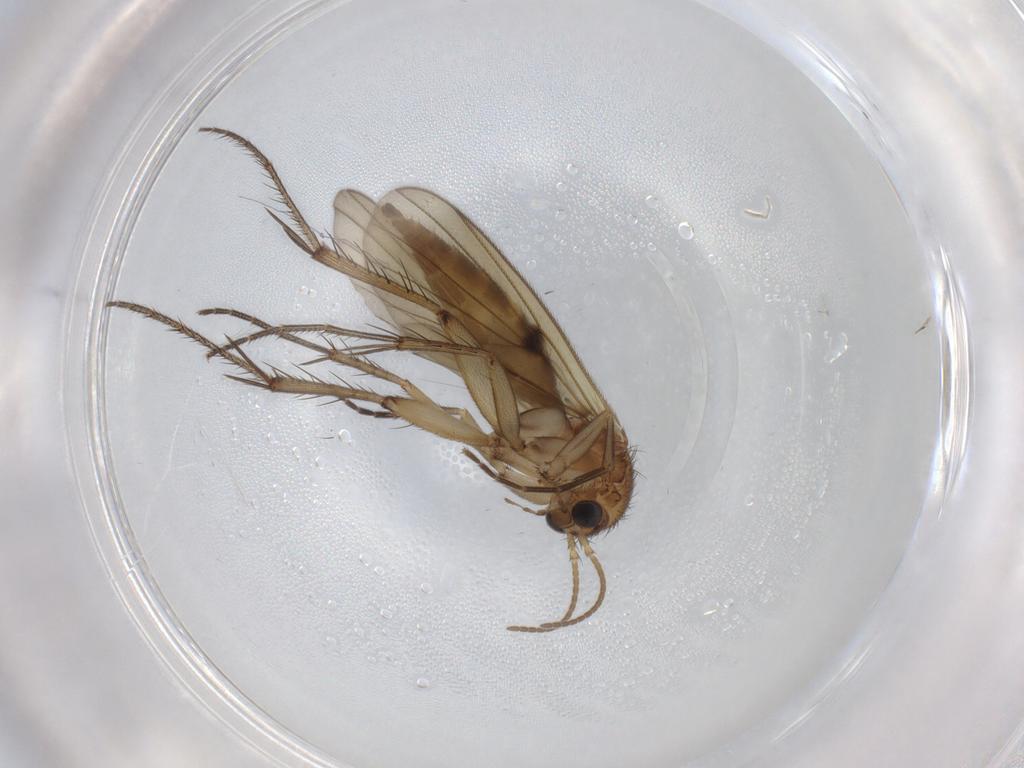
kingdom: Animalia
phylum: Arthropoda
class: Insecta
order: Diptera
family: Mycetophilidae
